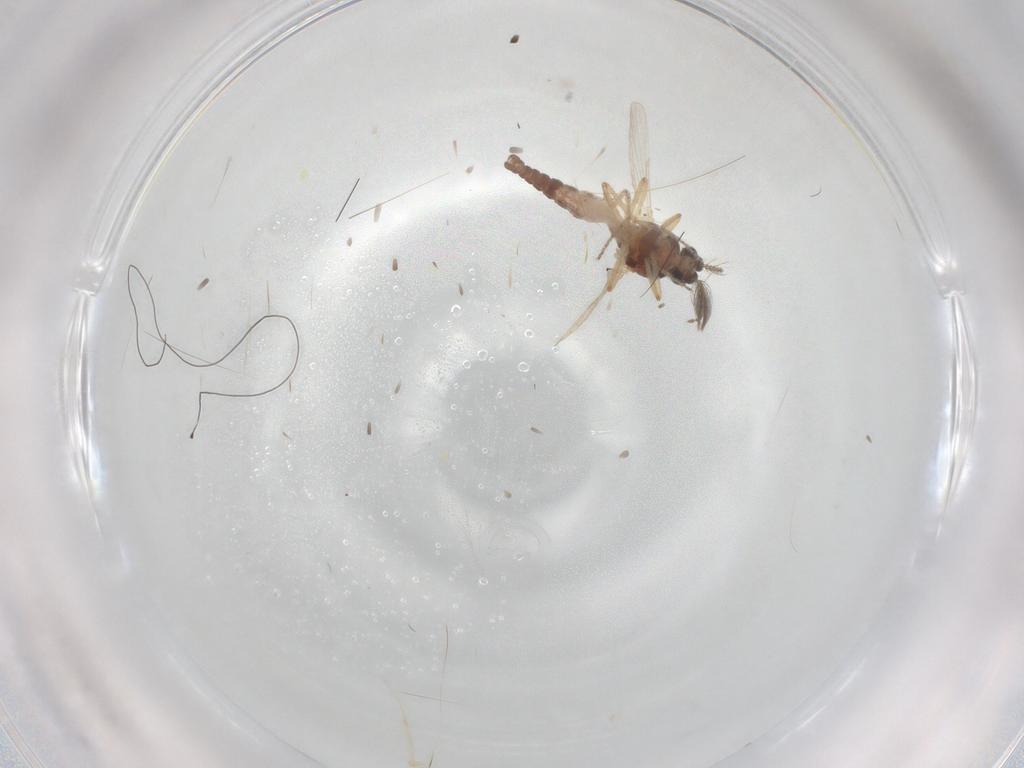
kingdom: Animalia
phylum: Arthropoda
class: Insecta
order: Diptera
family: Ceratopogonidae
